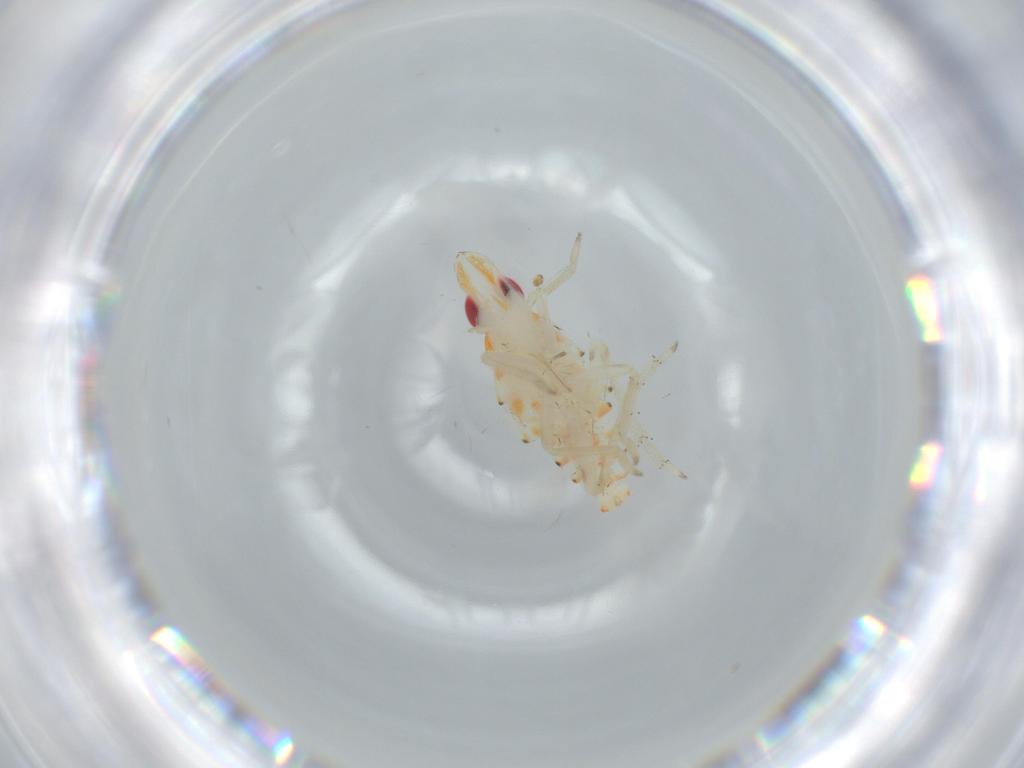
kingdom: Animalia
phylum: Arthropoda
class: Insecta
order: Hemiptera
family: Tropiduchidae
